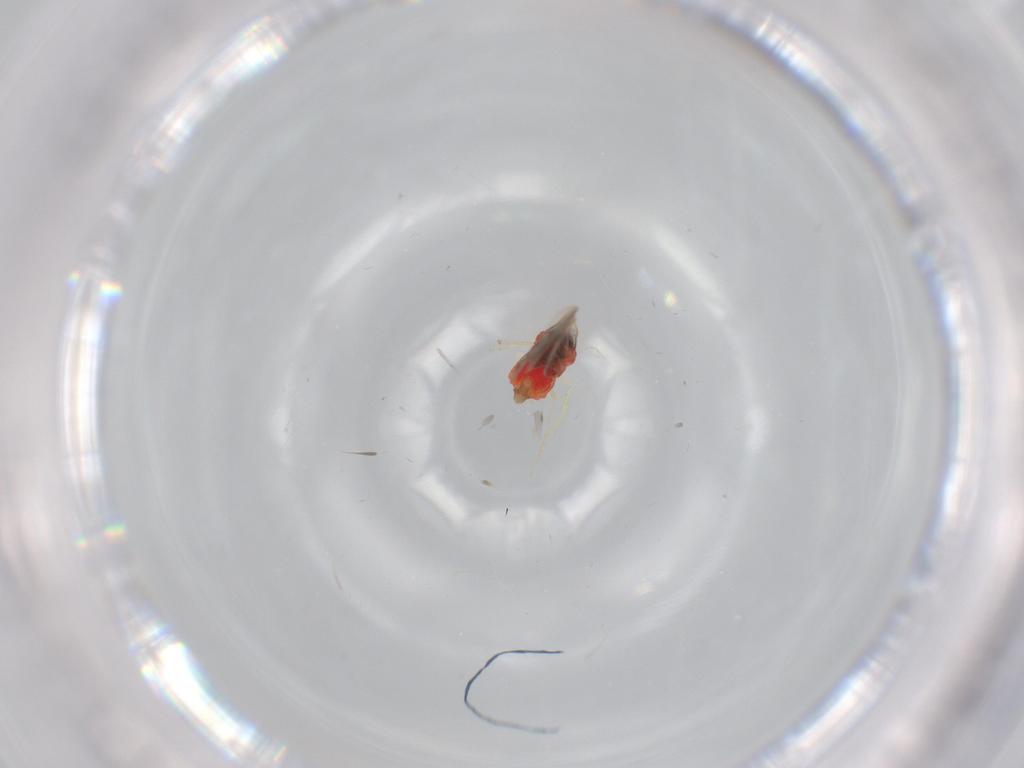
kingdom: Animalia
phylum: Arthropoda
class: Insecta
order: Hemiptera
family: Aleyrodidae
